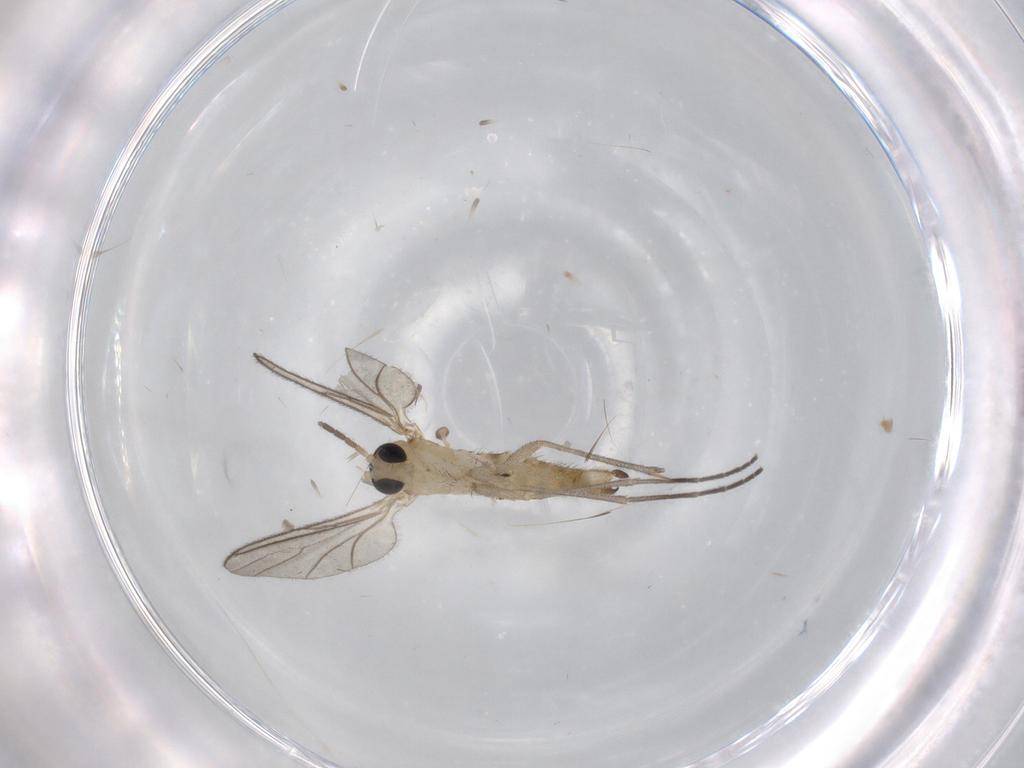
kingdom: Animalia
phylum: Arthropoda
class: Insecta
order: Diptera
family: Sciaridae
